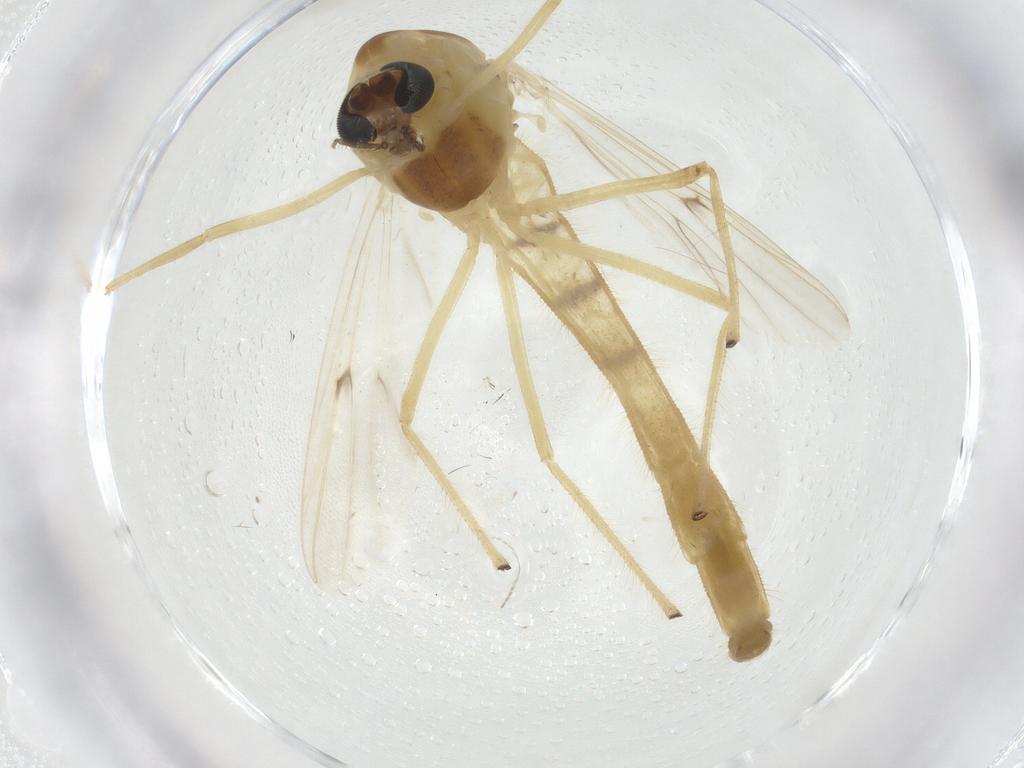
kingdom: Animalia
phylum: Arthropoda
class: Insecta
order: Diptera
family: Chironomidae
